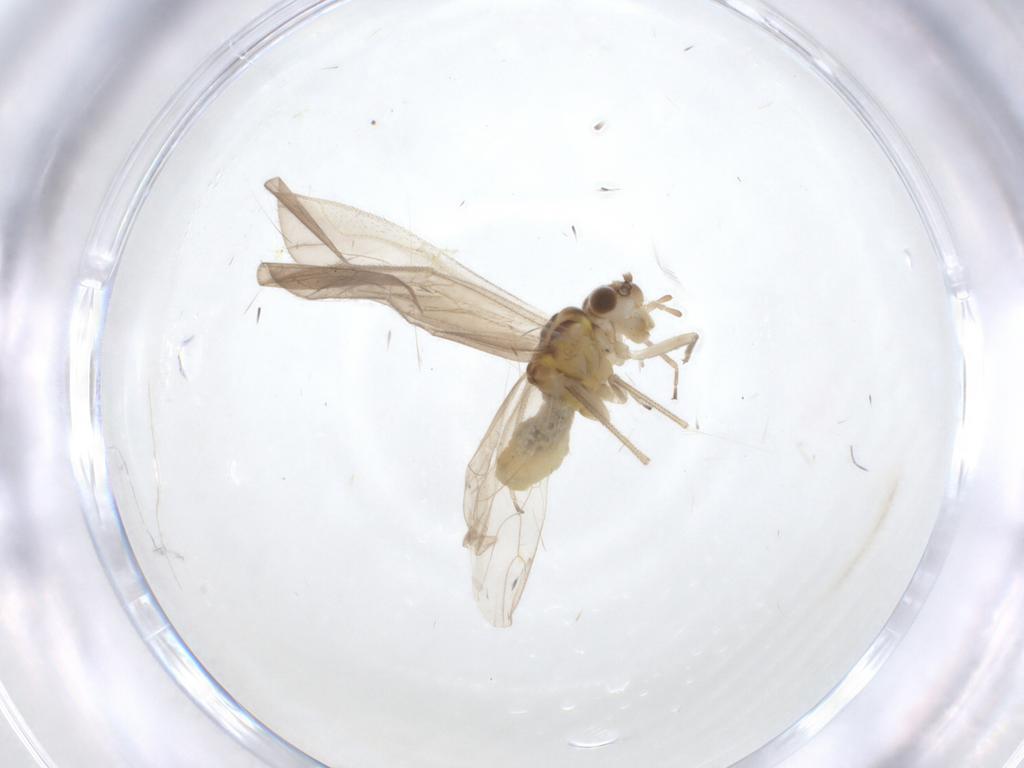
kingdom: Animalia
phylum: Arthropoda
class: Insecta
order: Psocodea
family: Caeciliusidae
